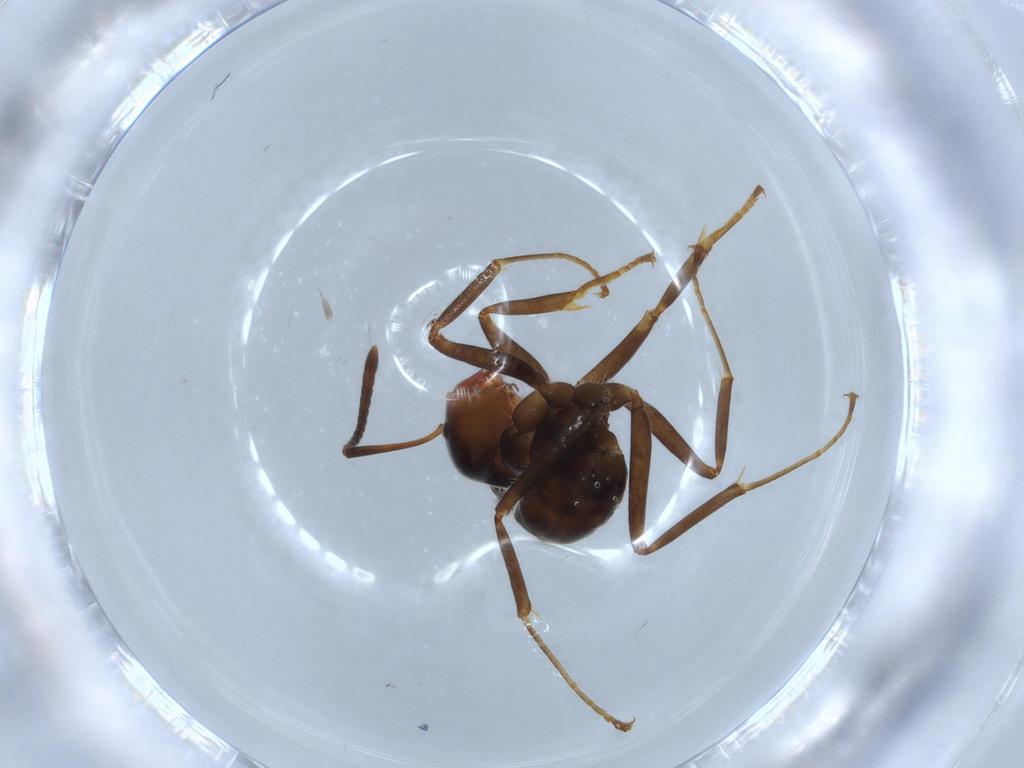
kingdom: Animalia
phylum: Arthropoda
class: Insecta
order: Hymenoptera
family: Formicidae
